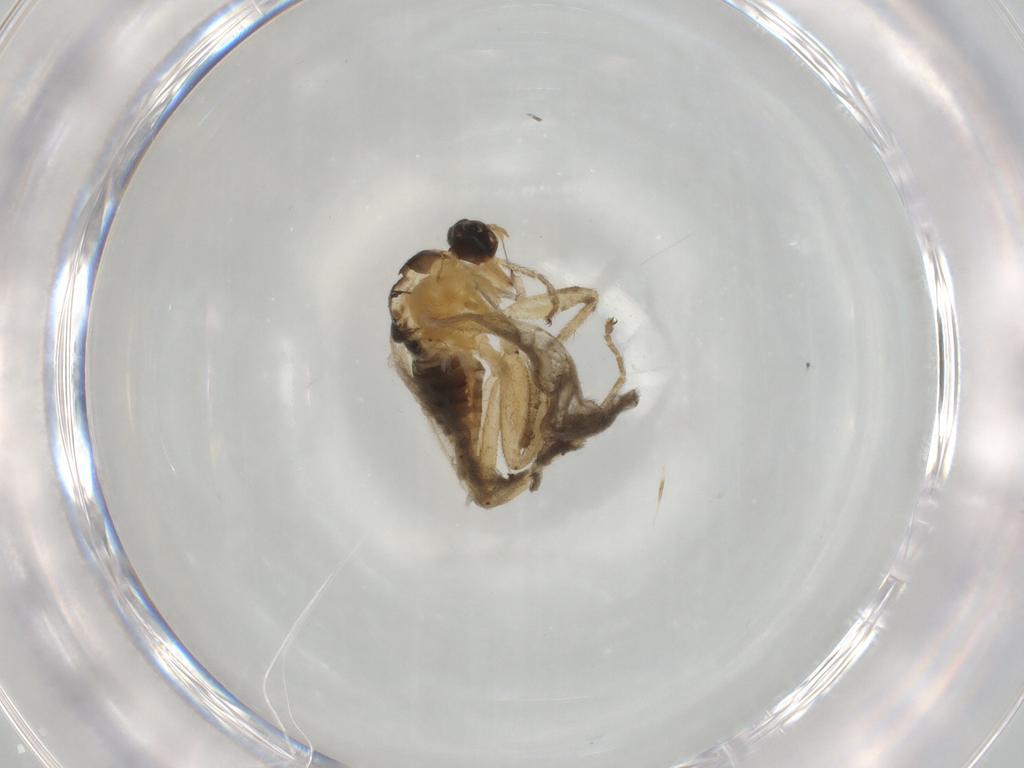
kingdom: Animalia
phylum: Arthropoda
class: Insecta
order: Diptera
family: Hybotidae
